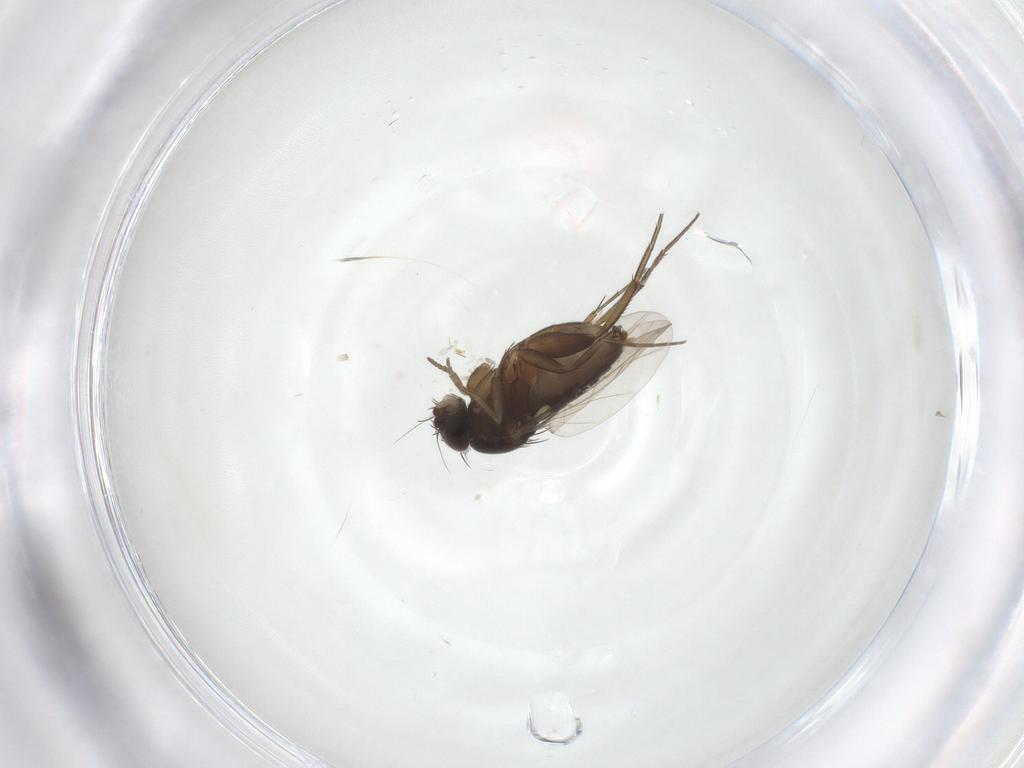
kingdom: Animalia
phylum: Arthropoda
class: Insecta
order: Diptera
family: Phoridae
